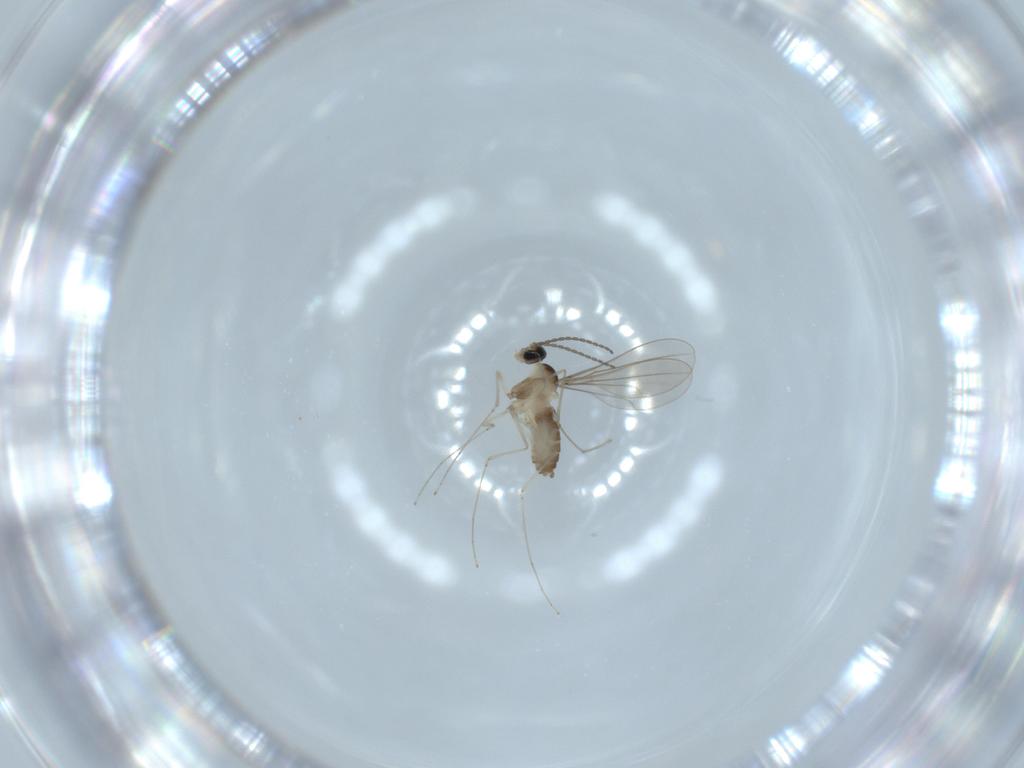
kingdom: Animalia
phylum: Arthropoda
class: Insecta
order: Diptera
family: Cecidomyiidae
